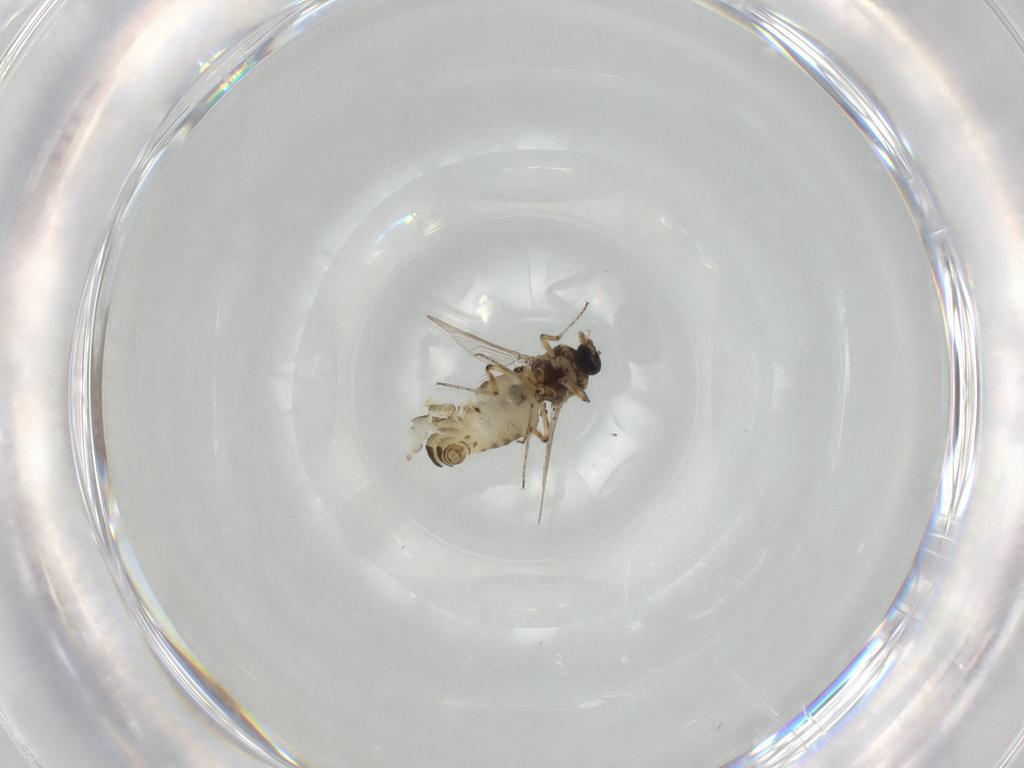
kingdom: Animalia
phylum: Arthropoda
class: Insecta
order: Diptera
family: Ceratopogonidae
